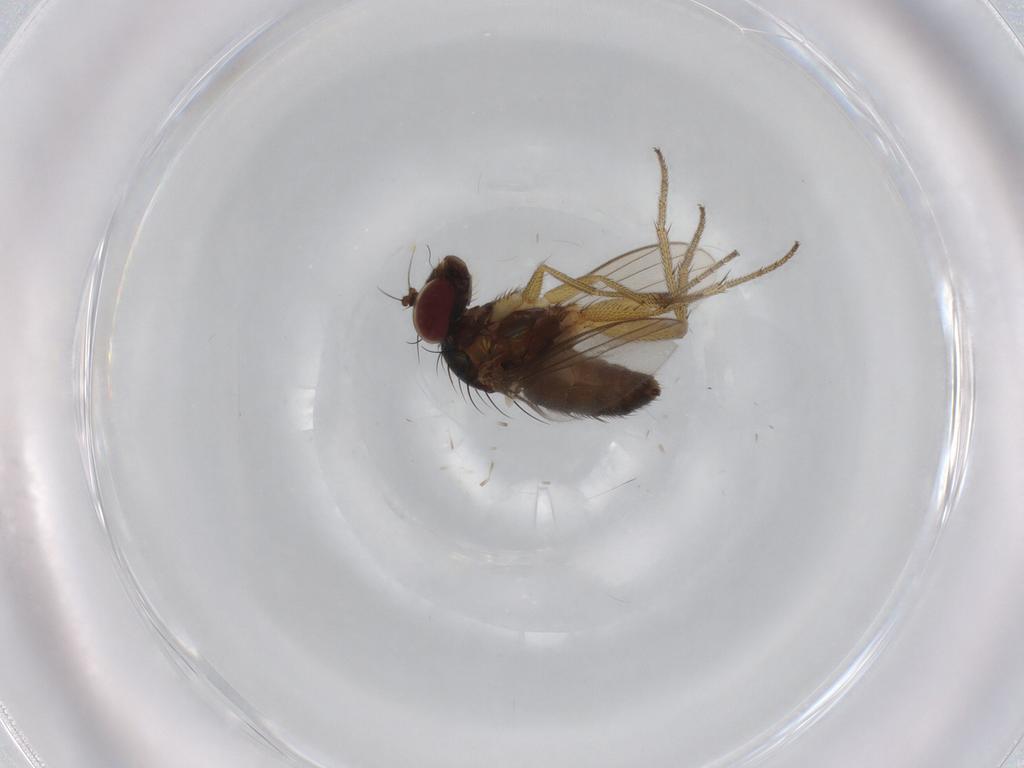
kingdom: Animalia
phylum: Arthropoda
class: Insecta
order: Diptera
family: Dolichopodidae
